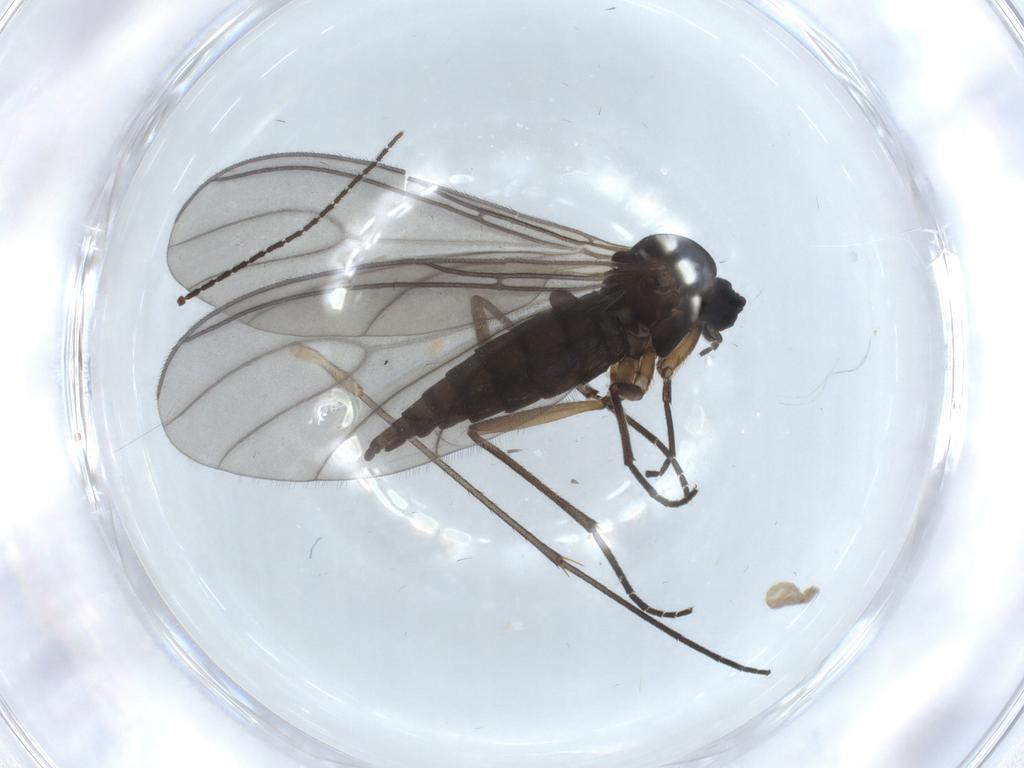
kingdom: Animalia
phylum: Arthropoda
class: Insecta
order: Diptera
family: Sciaridae
